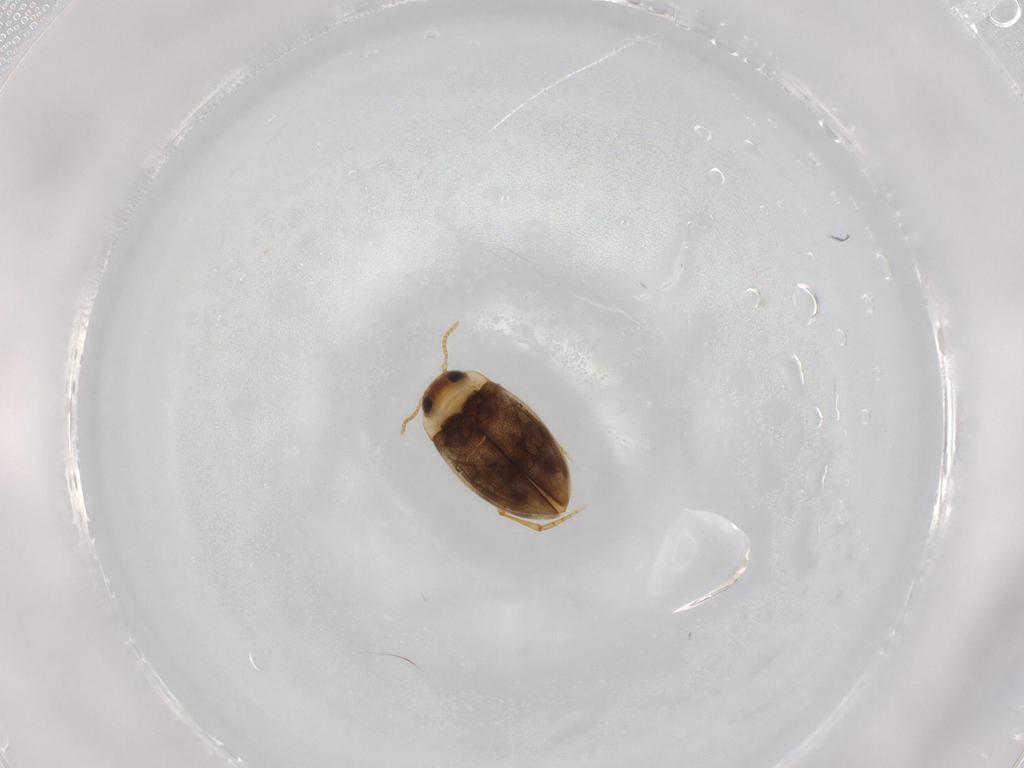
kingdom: Animalia
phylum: Arthropoda
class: Insecta
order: Coleoptera
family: Dytiscidae
